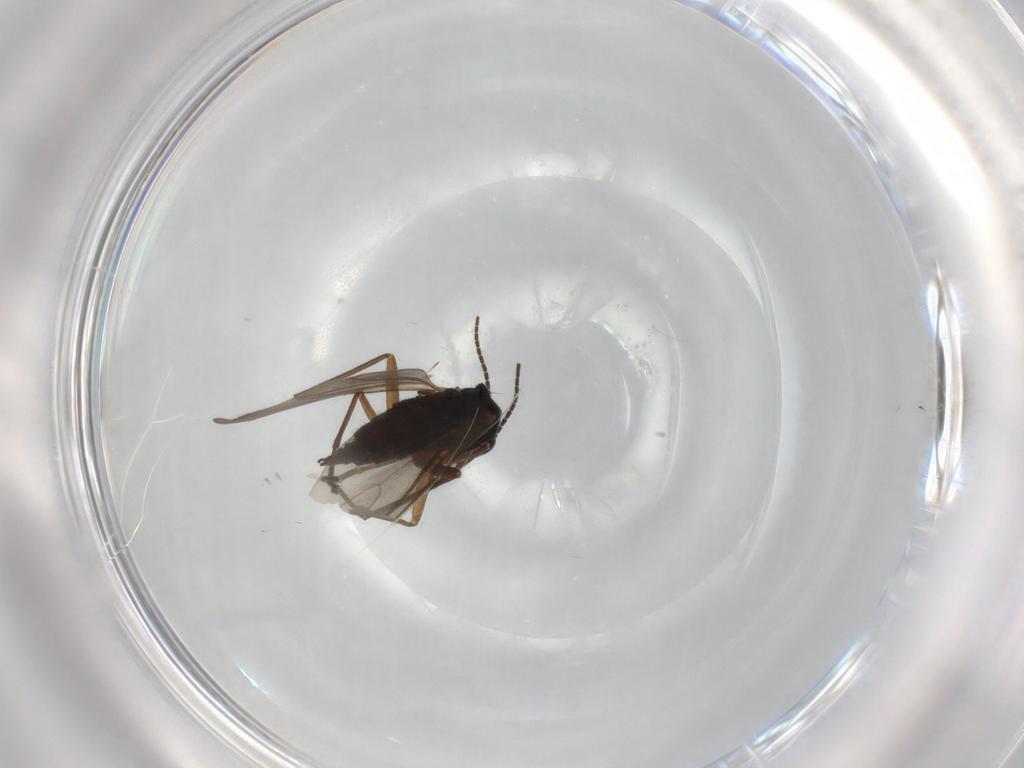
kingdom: Animalia
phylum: Arthropoda
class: Insecta
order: Diptera
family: Sciaridae
